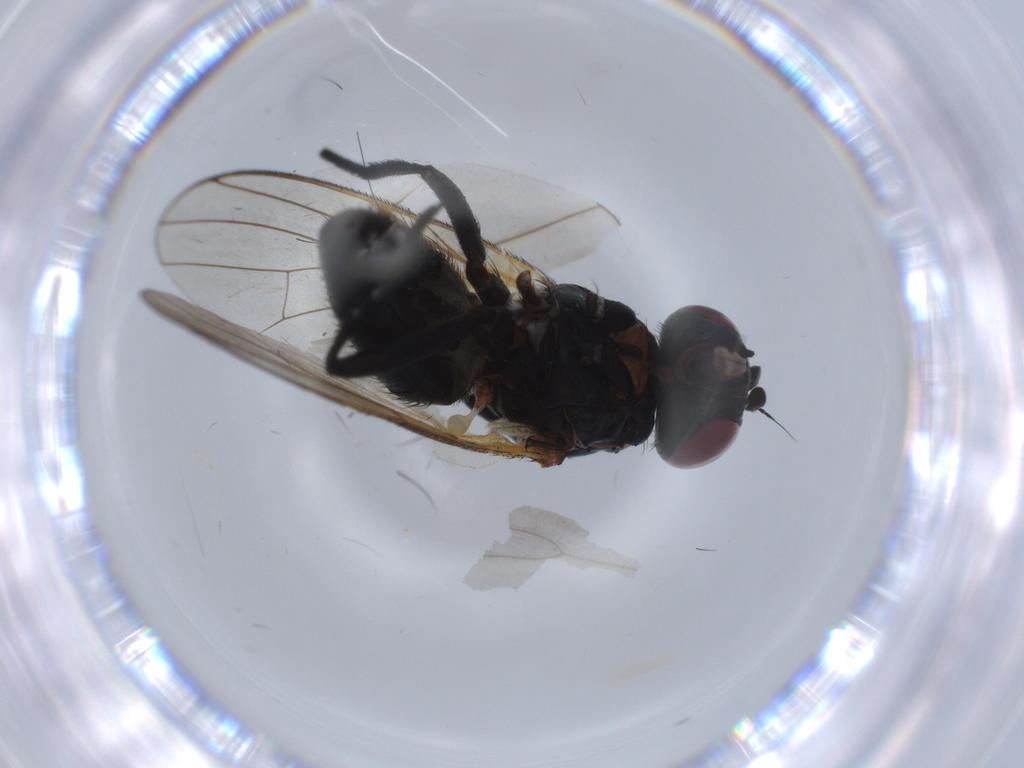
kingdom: Animalia
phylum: Arthropoda
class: Insecta
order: Diptera
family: Fannia
